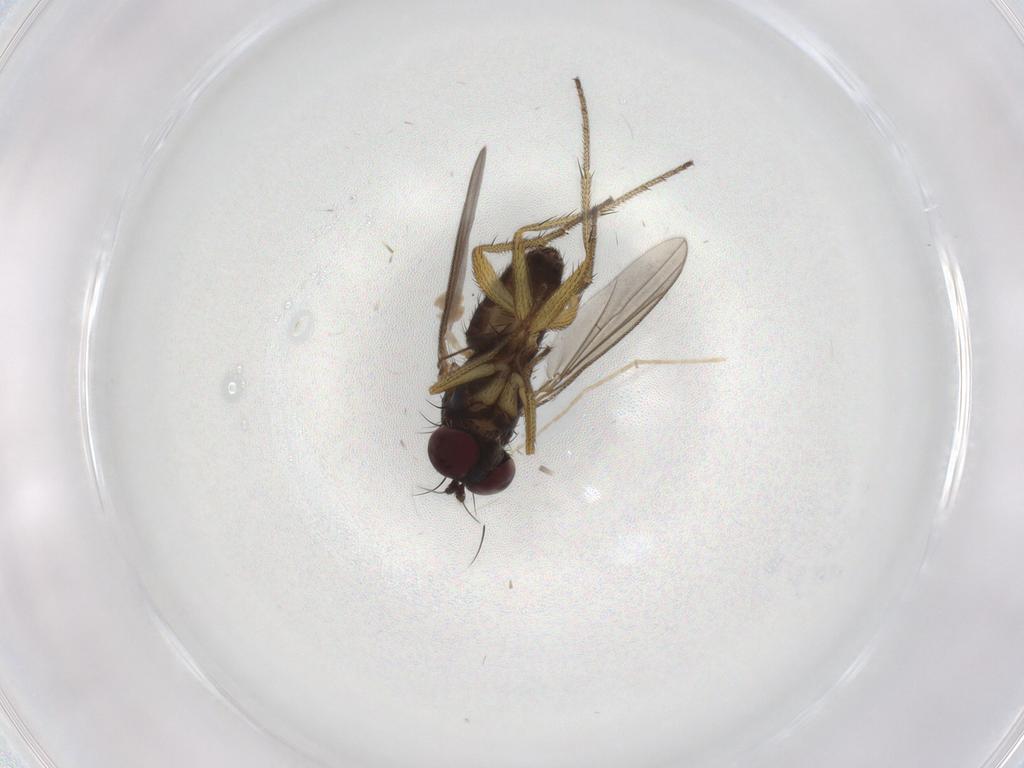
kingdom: Animalia
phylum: Arthropoda
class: Insecta
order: Diptera
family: Dolichopodidae
